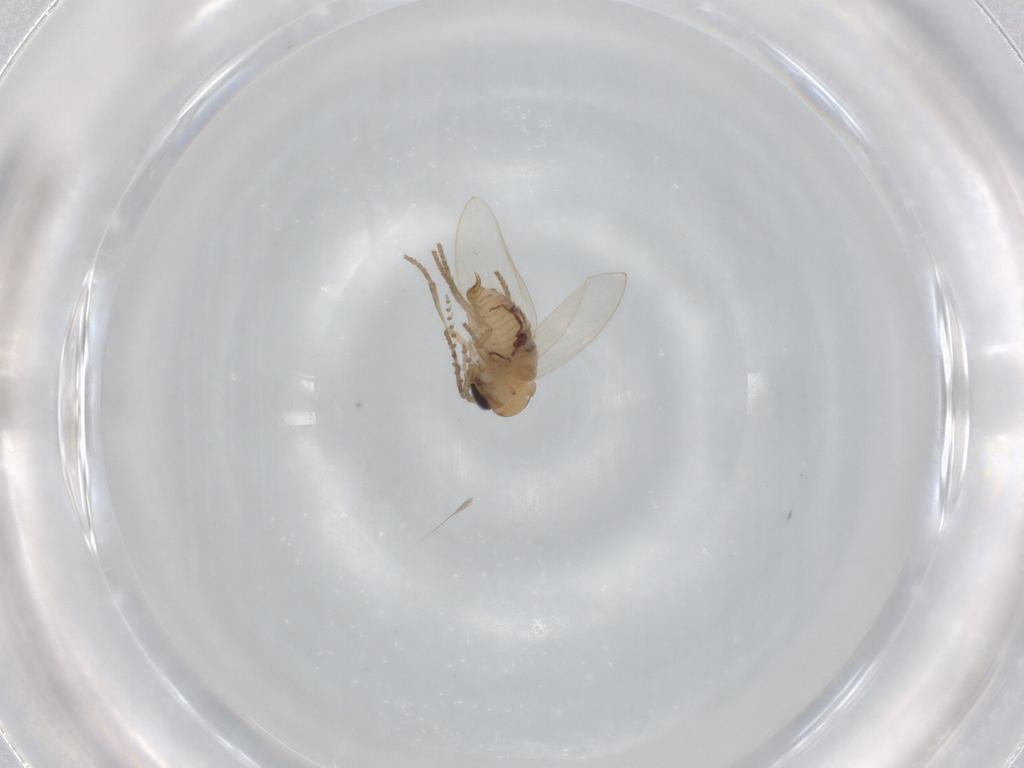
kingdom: Animalia
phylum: Arthropoda
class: Insecta
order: Diptera
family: Psychodidae
